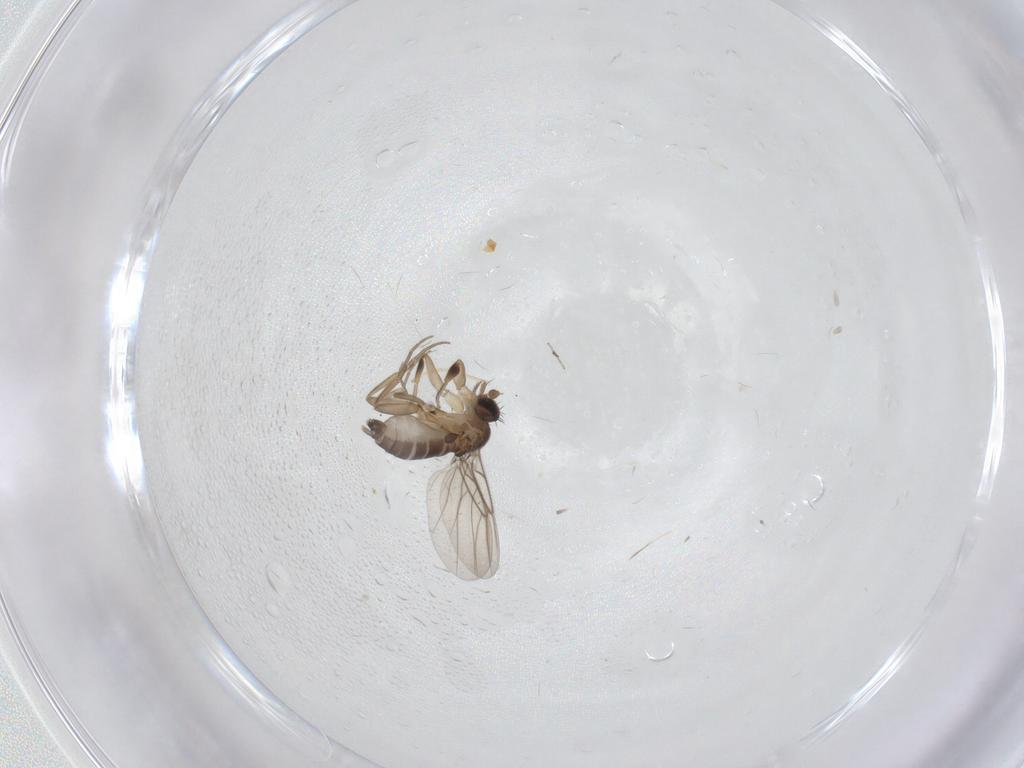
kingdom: Animalia
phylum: Arthropoda
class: Insecta
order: Diptera
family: Phoridae
